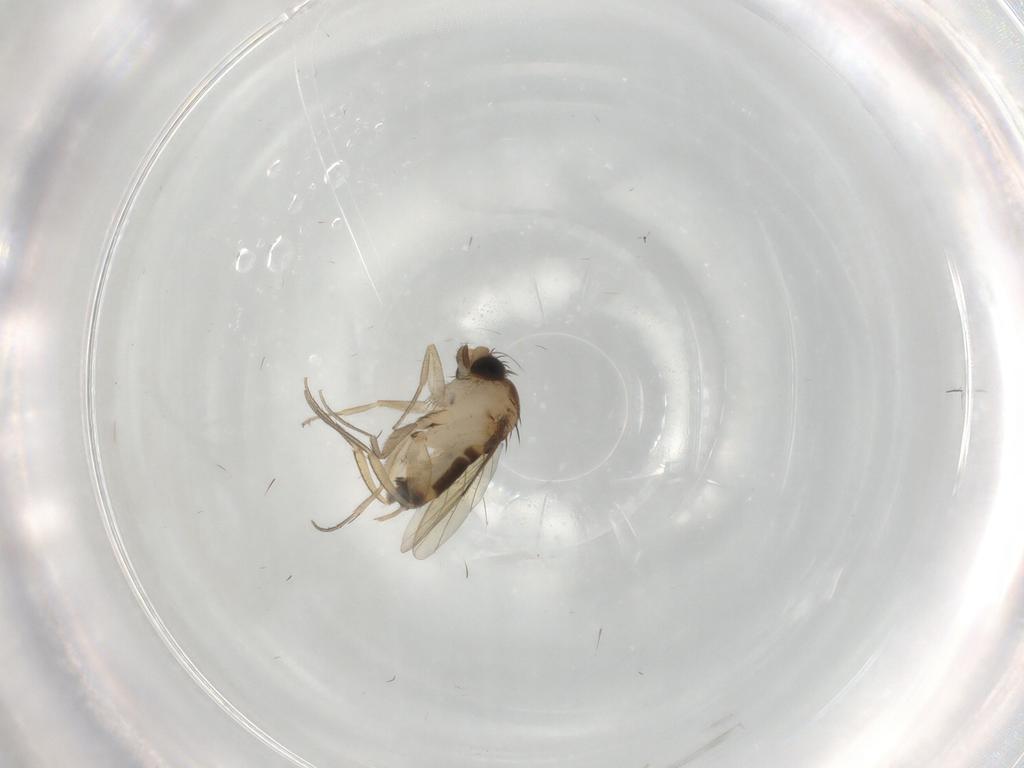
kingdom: Animalia
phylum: Arthropoda
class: Insecta
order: Diptera
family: Phoridae
